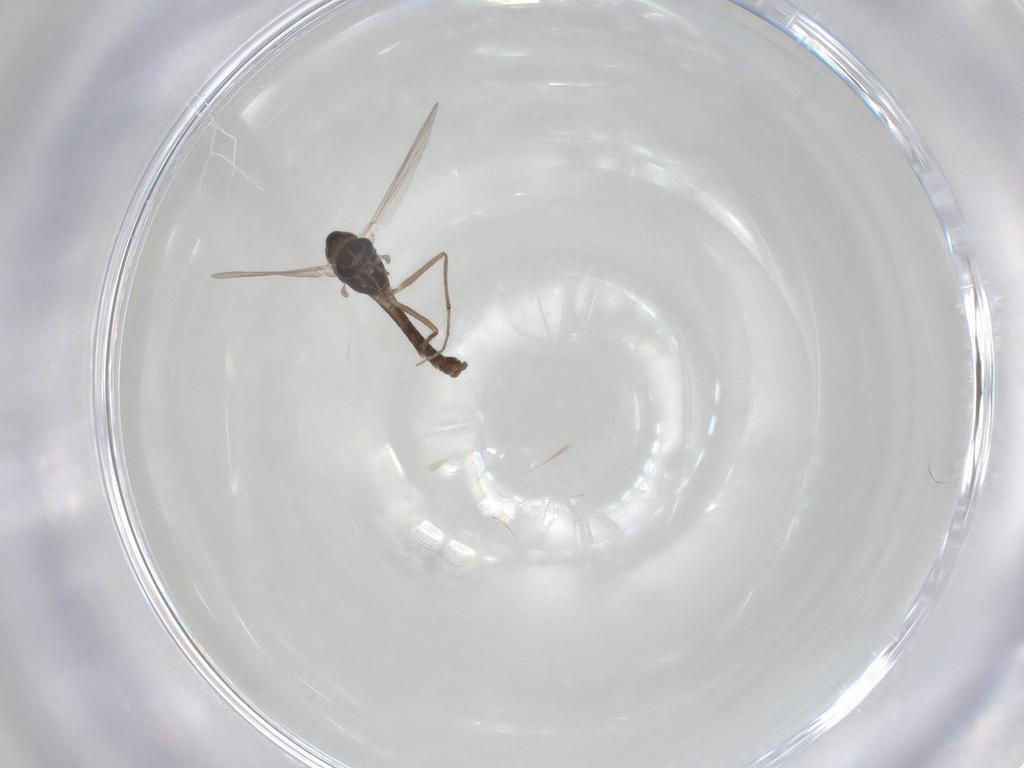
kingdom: Animalia
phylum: Arthropoda
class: Insecta
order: Diptera
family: Chironomidae
